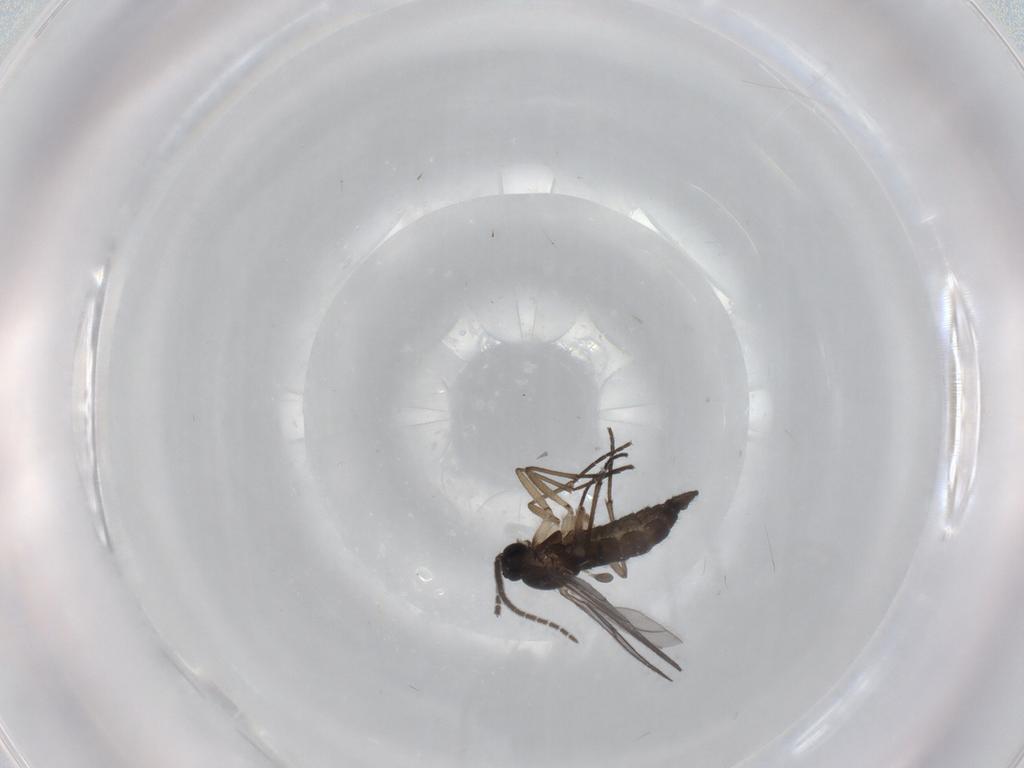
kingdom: Animalia
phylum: Arthropoda
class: Insecta
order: Diptera
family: Sciaridae
